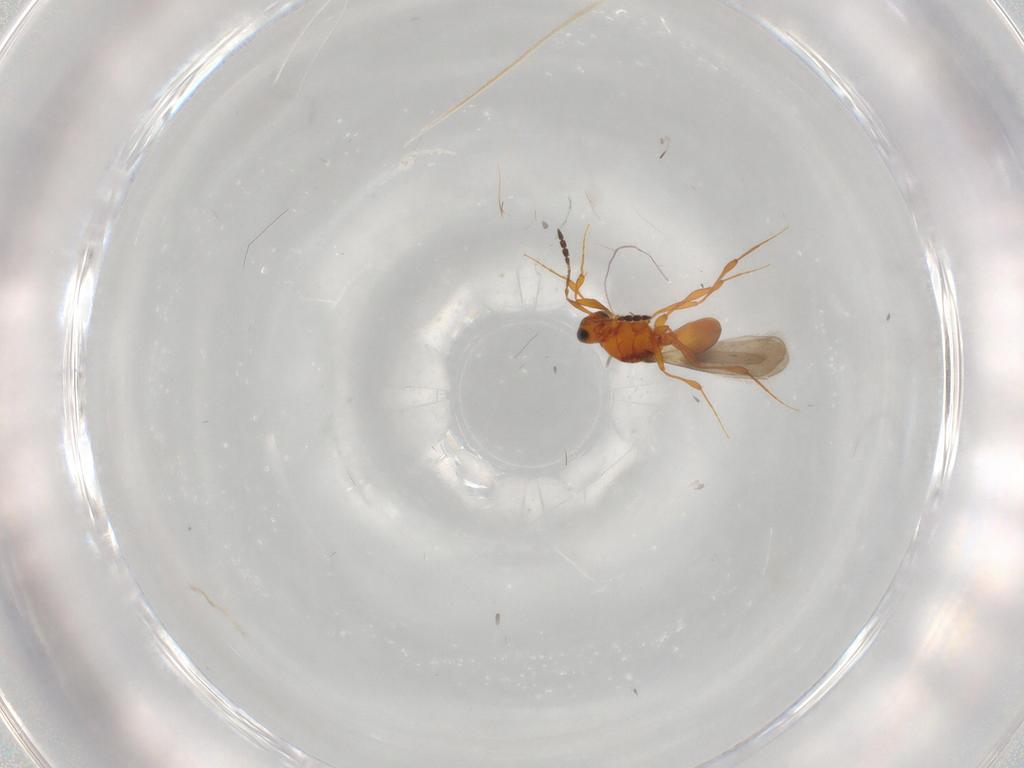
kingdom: Animalia
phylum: Arthropoda
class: Insecta
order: Hymenoptera
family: Platygastridae
